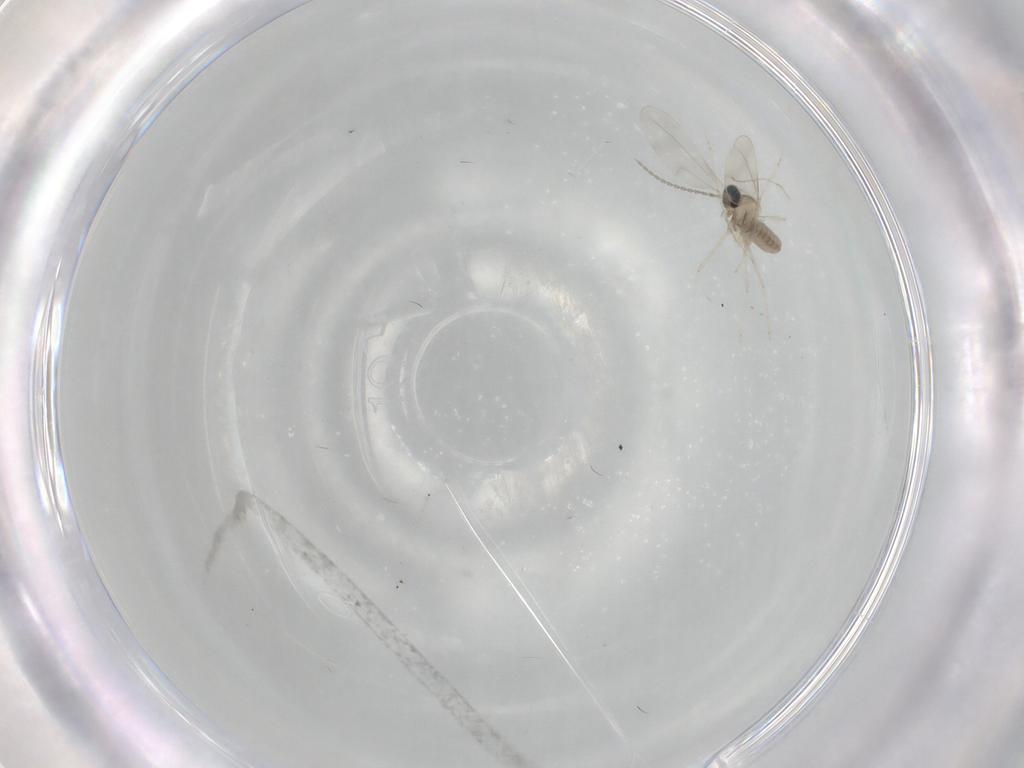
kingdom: Animalia
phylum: Arthropoda
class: Insecta
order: Diptera
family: Cecidomyiidae
